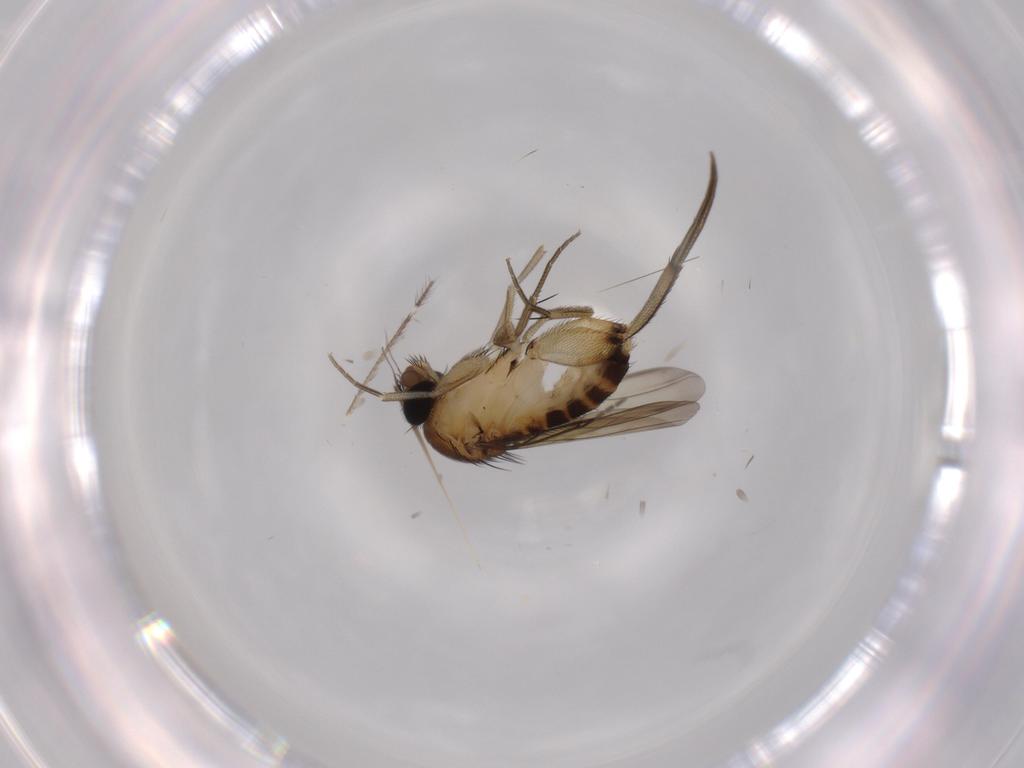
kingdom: Animalia
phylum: Arthropoda
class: Insecta
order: Diptera
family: Phoridae
